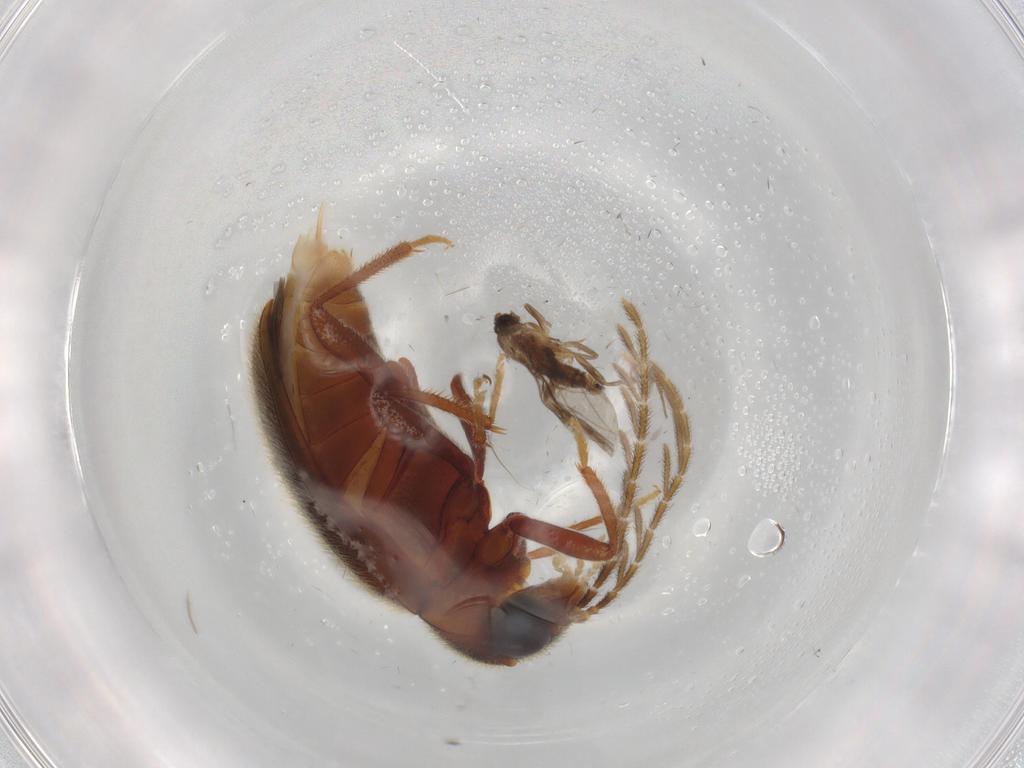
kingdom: Animalia
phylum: Arthropoda
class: Insecta
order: Coleoptera
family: Ptilodactylidae
